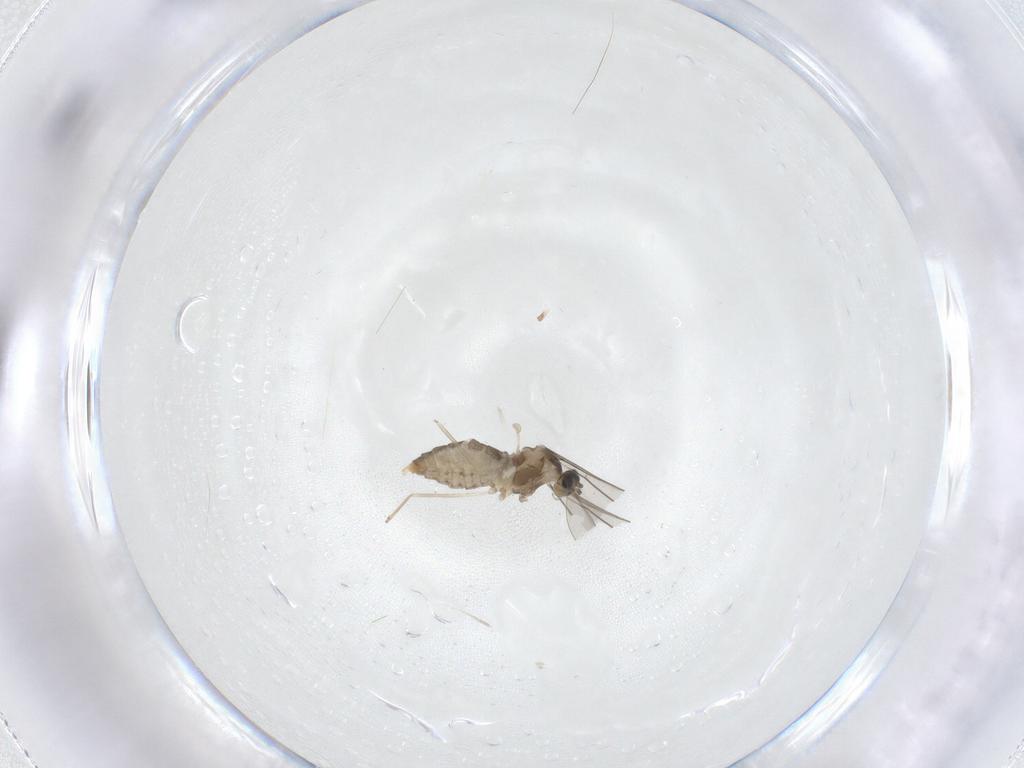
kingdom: Animalia
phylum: Arthropoda
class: Insecta
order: Diptera
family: Cecidomyiidae
